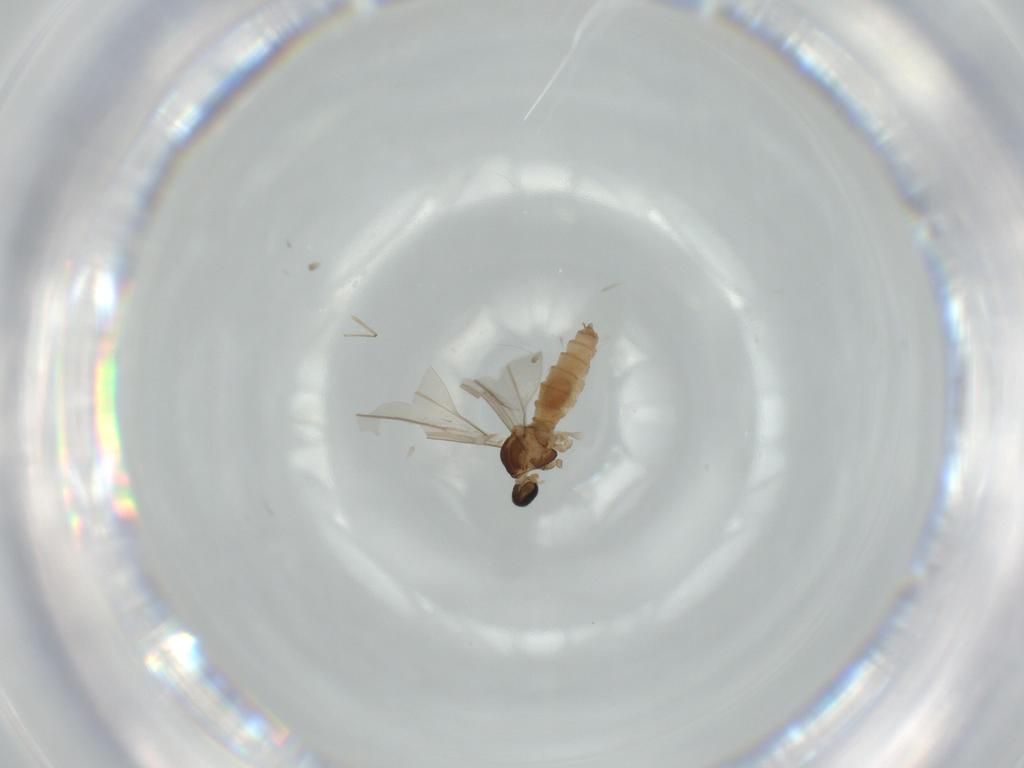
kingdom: Animalia
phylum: Arthropoda
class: Insecta
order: Diptera
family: Cecidomyiidae
